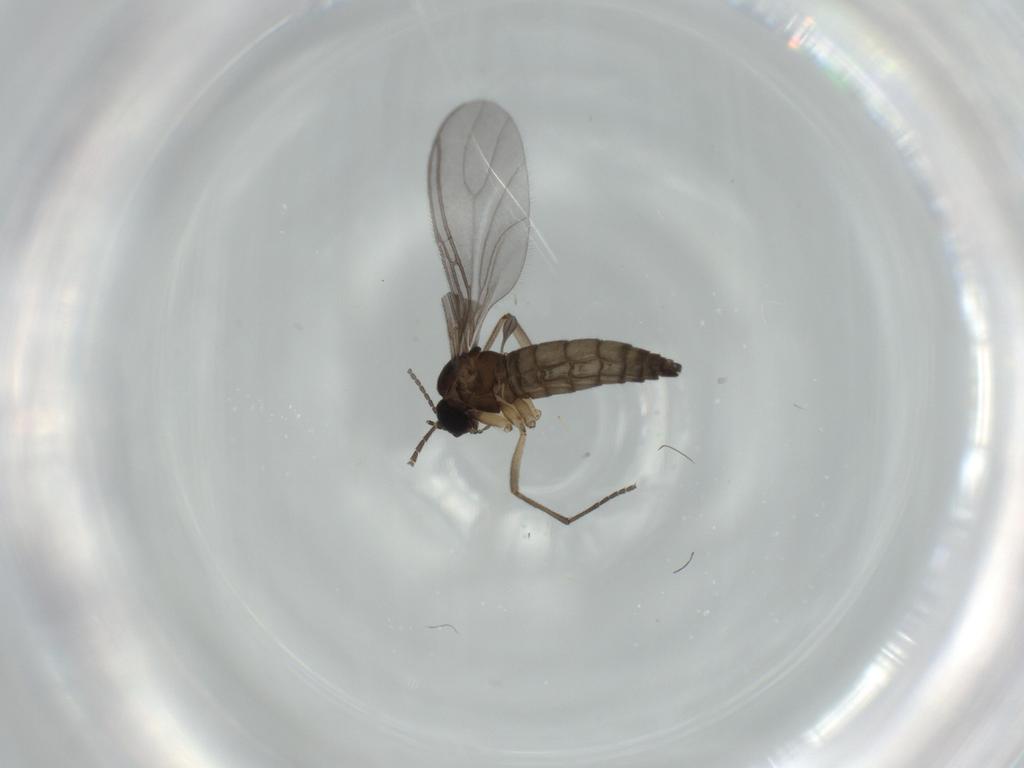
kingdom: Animalia
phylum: Arthropoda
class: Insecta
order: Diptera
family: Sciaridae
